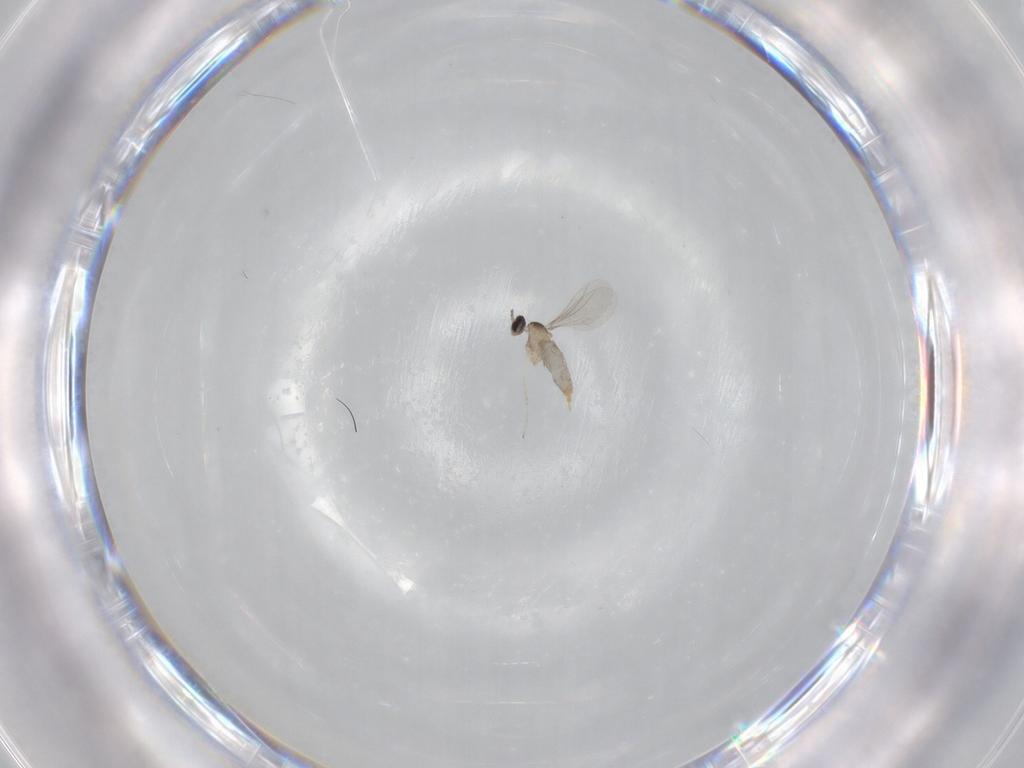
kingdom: Animalia
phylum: Arthropoda
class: Insecta
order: Diptera
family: Cecidomyiidae
